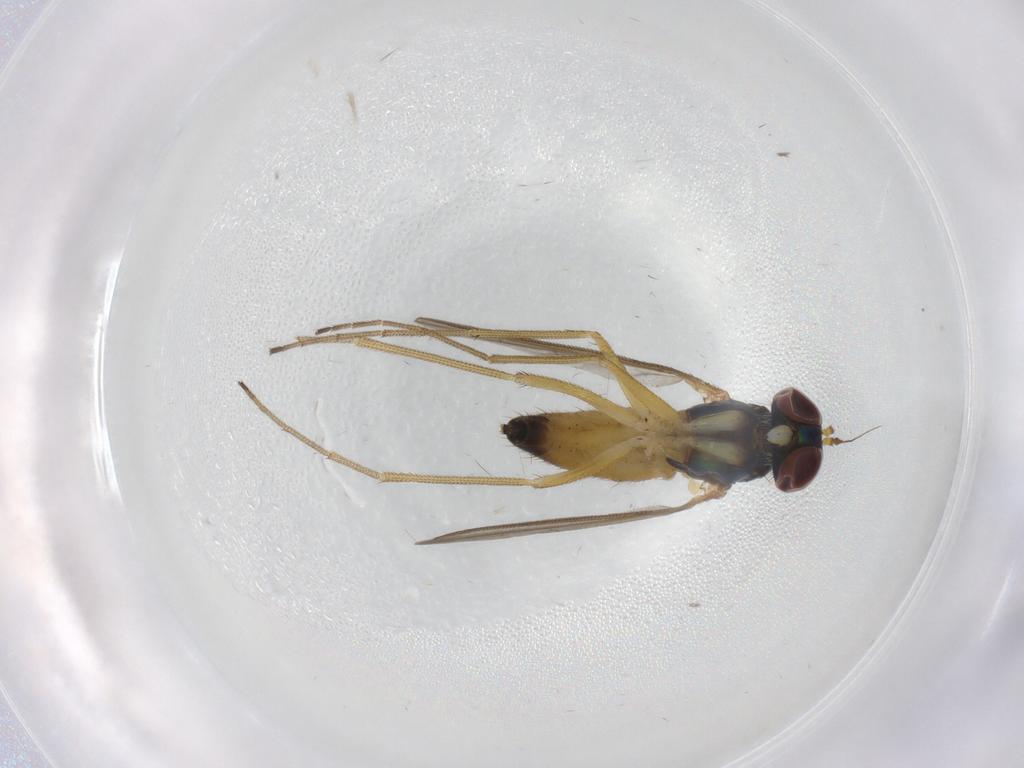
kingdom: Animalia
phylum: Arthropoda
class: Insecta
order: Diptera
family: Dolichopodidae
